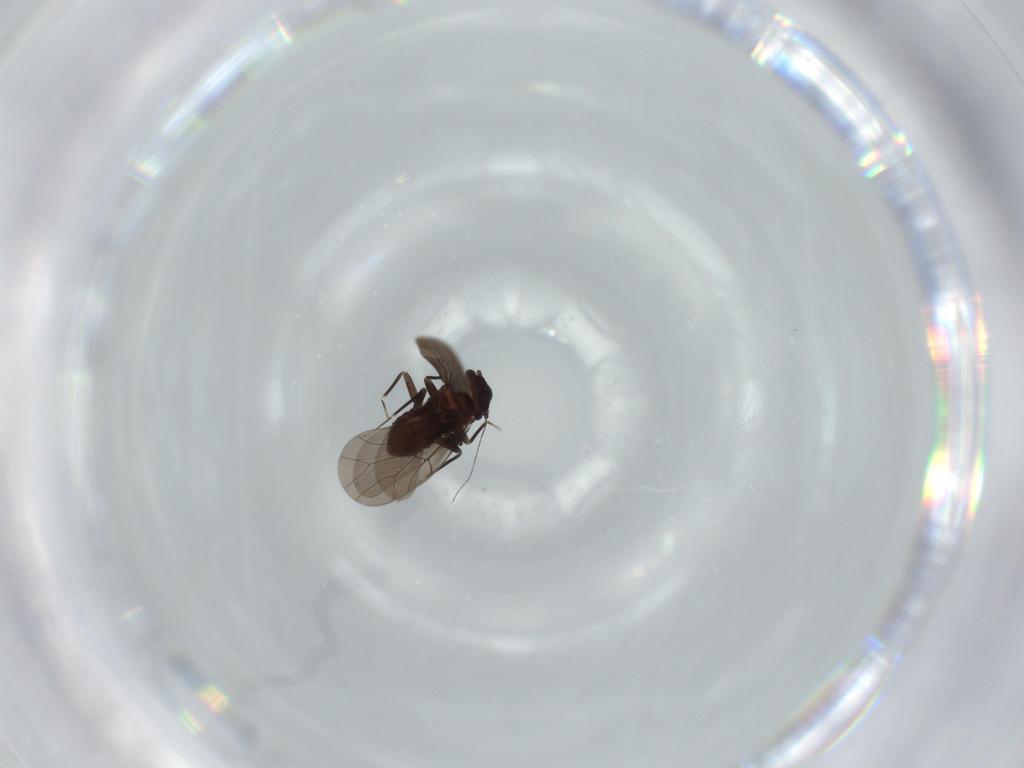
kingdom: Animalia
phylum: Arthropoda
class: Insecta
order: Psocodea
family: Lepidopsocidae
